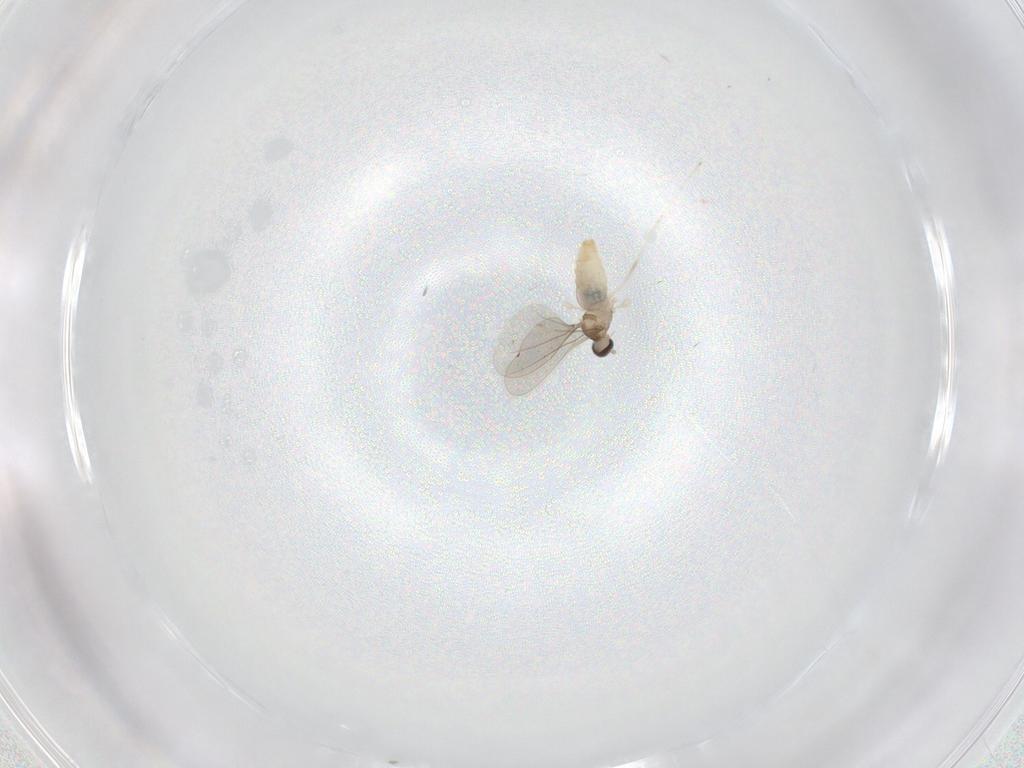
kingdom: Animalia
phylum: Arthropoda
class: Insecta
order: Diptera
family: Cecidomyiidae
